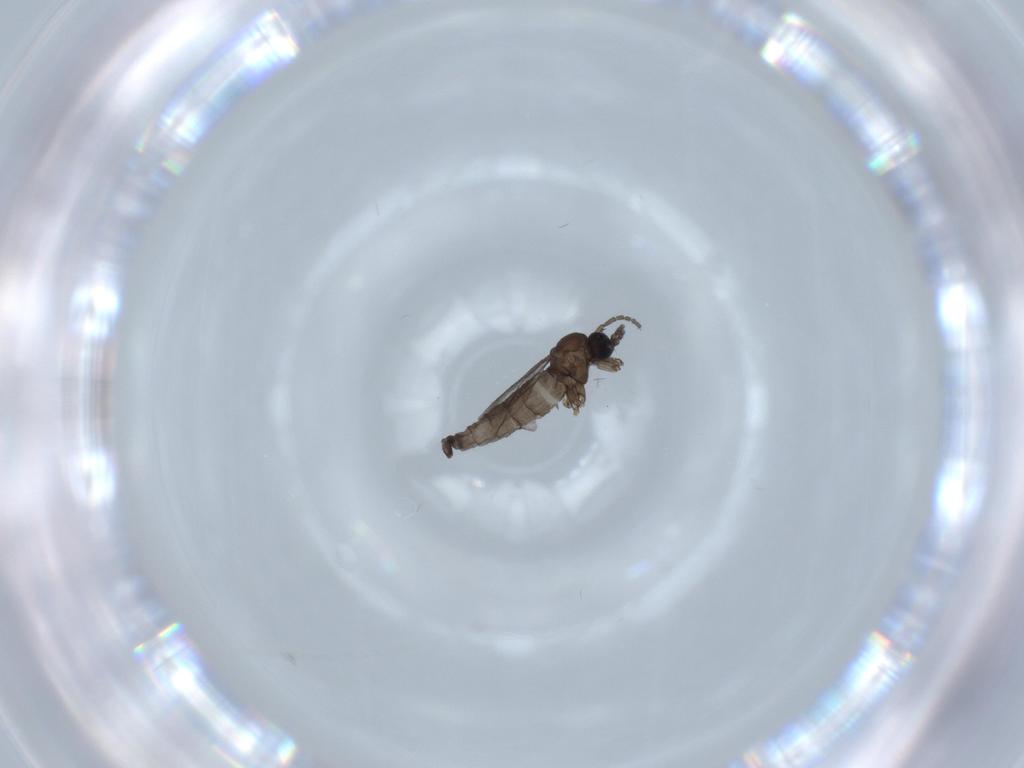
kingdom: Animalia
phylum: Arthropoda
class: Insecta
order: Diptera
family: Sciaridae
